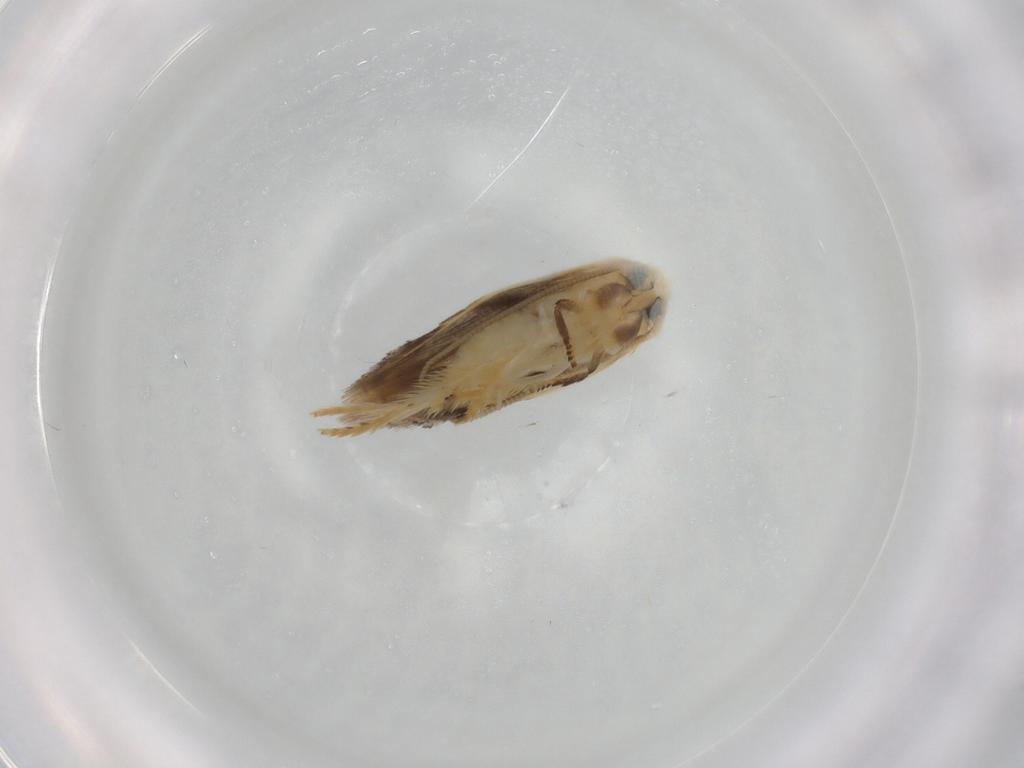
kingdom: Animalia
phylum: Arthropoda
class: Insecta
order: Lepidoptera
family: Opostegidae
